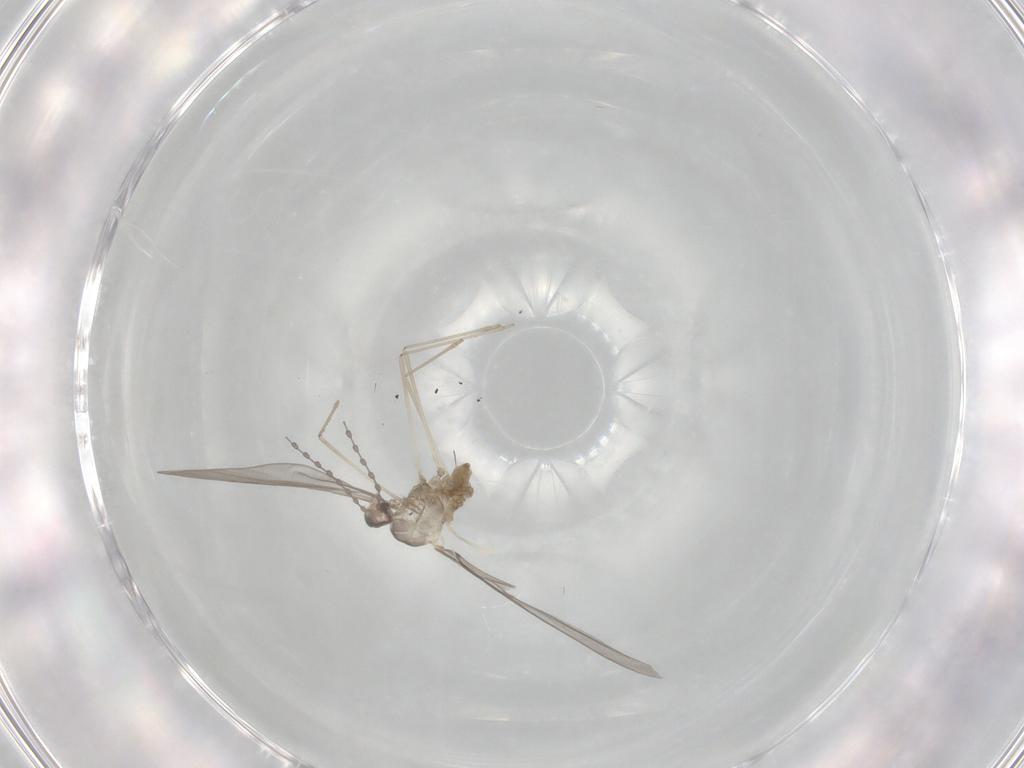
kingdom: Animalia
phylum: Arthropoda
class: Insecta
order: Diptera
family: Cecidomyiidae
